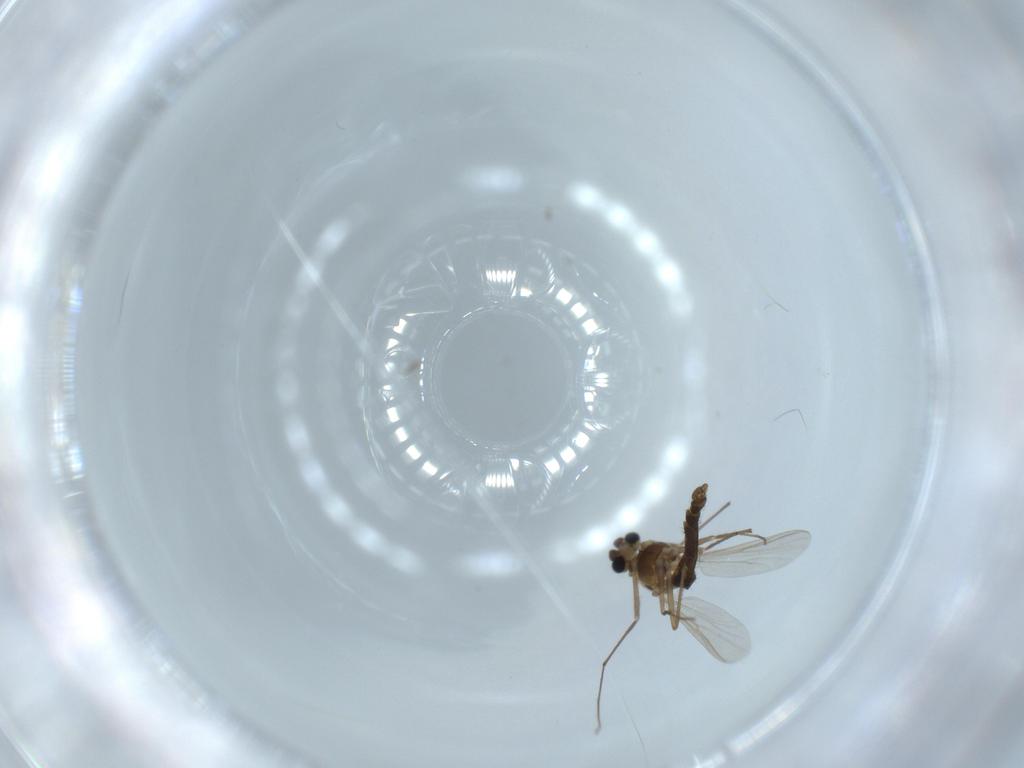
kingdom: Animalia
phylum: Arthropoda
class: Insecta
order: Diptera
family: Chironomidae
